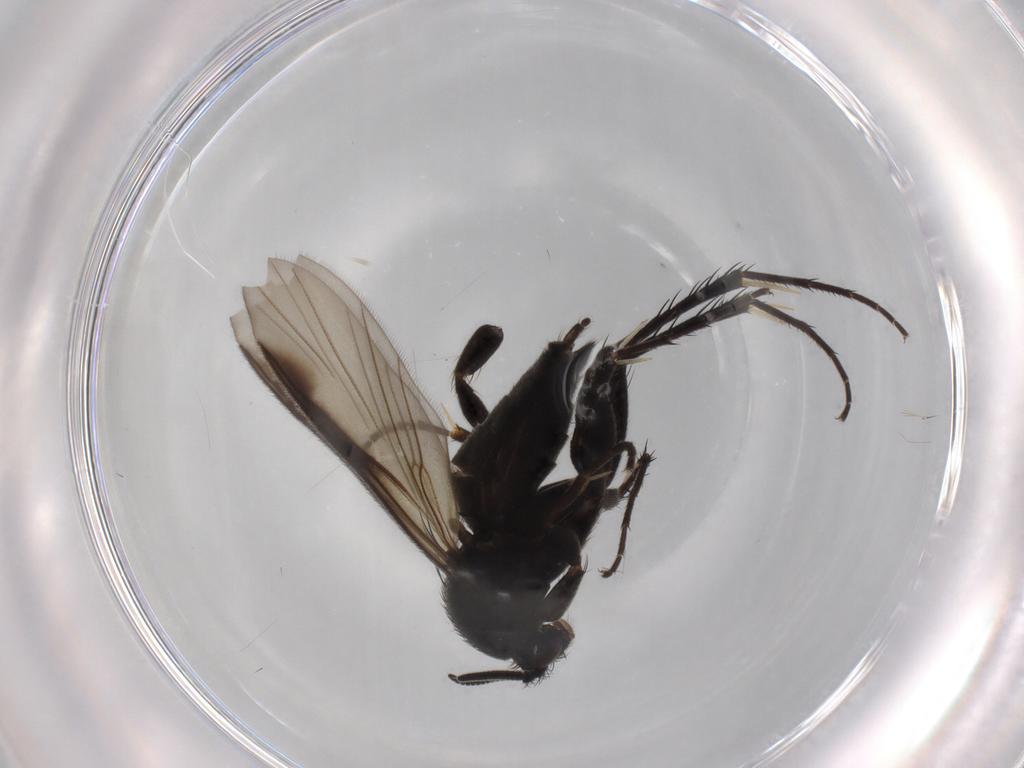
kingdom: Animalia
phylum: Arthropoda
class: Insecta
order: Diptera
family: Mycetophilidae
